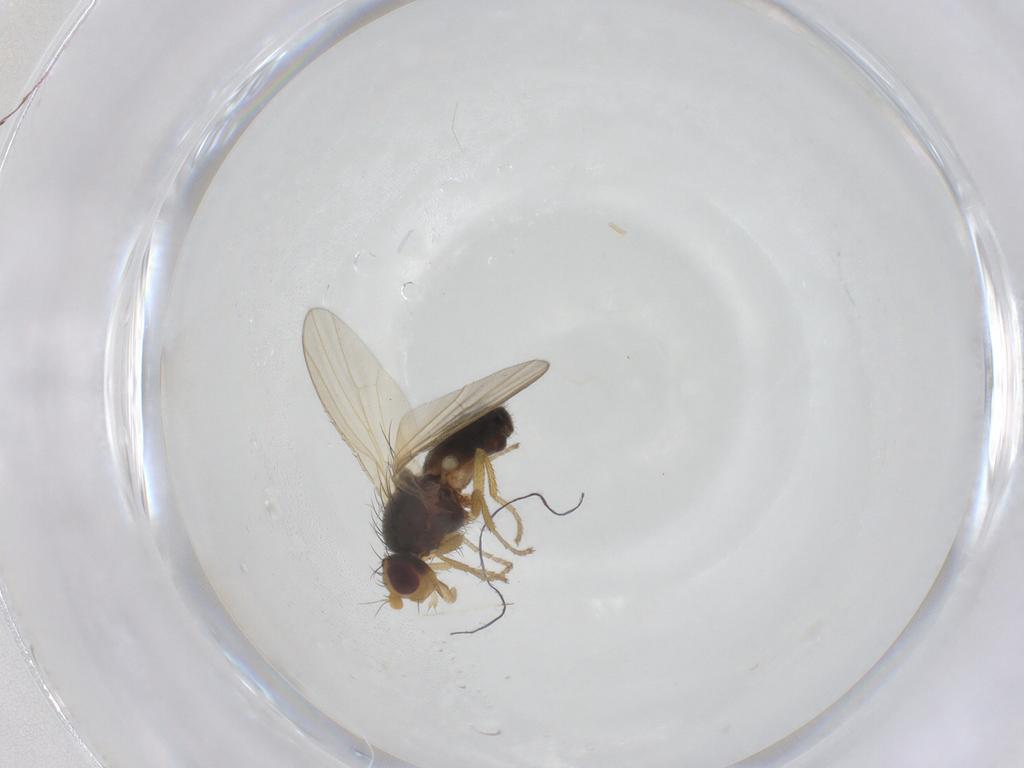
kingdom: Animalia
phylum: Arthropoda
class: Insecta
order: Diptera
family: Heleomyzidae
